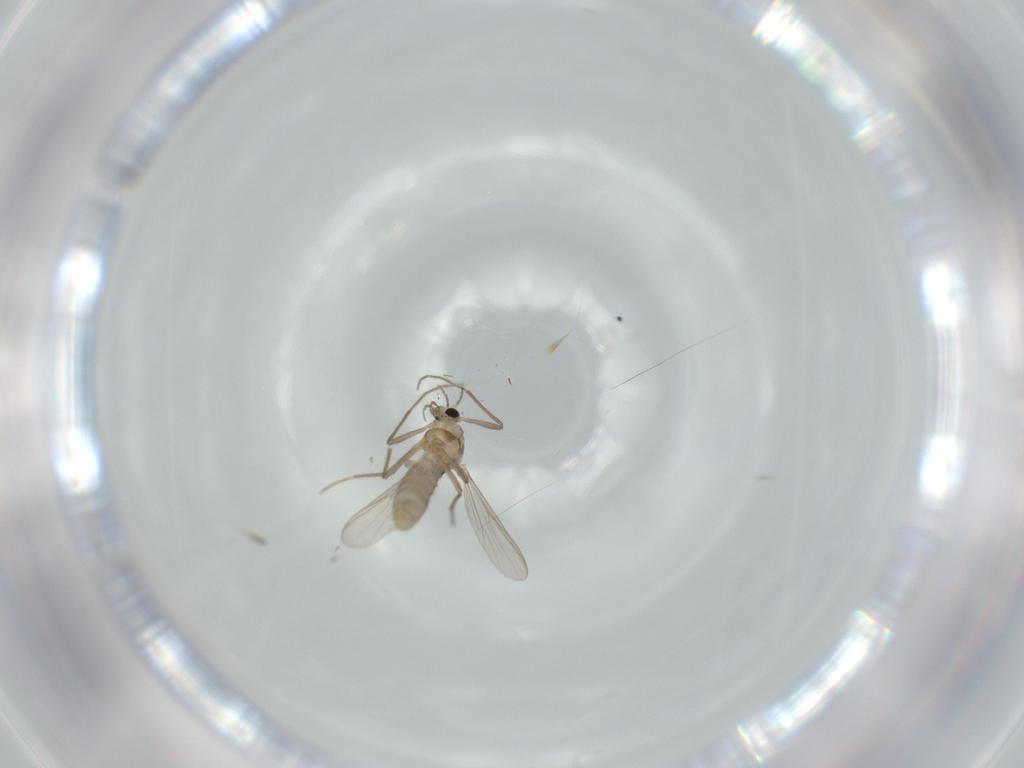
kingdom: Animalia
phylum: Arthropoda
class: Insecta
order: Diptera
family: Chironomidae
